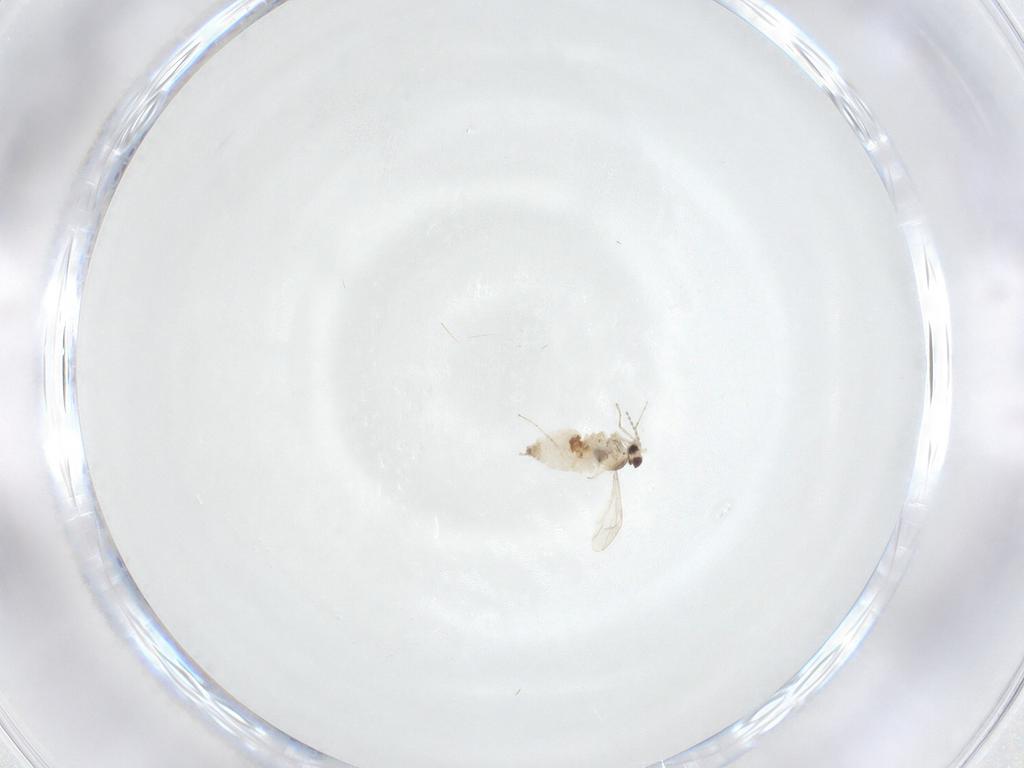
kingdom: Animalia
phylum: Arthropoda
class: Insecta
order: Diptera
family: Cecidomyiidae
